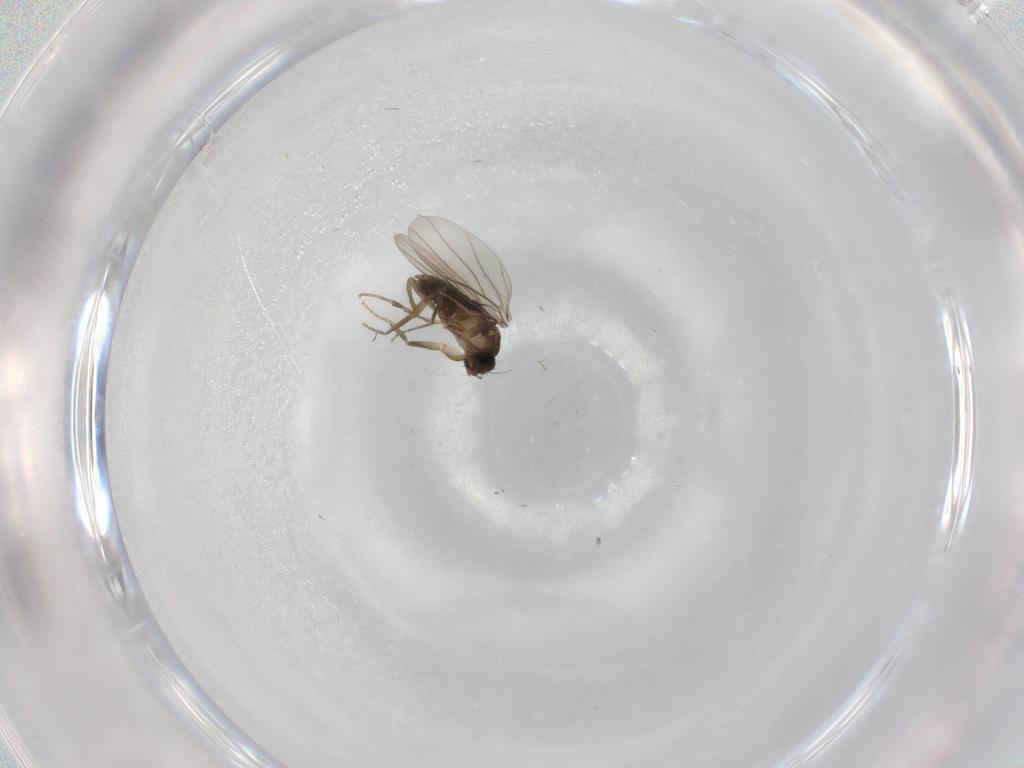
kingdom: Animalia
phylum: Arthropoda
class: Insecta
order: Diptera
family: Phoridae
